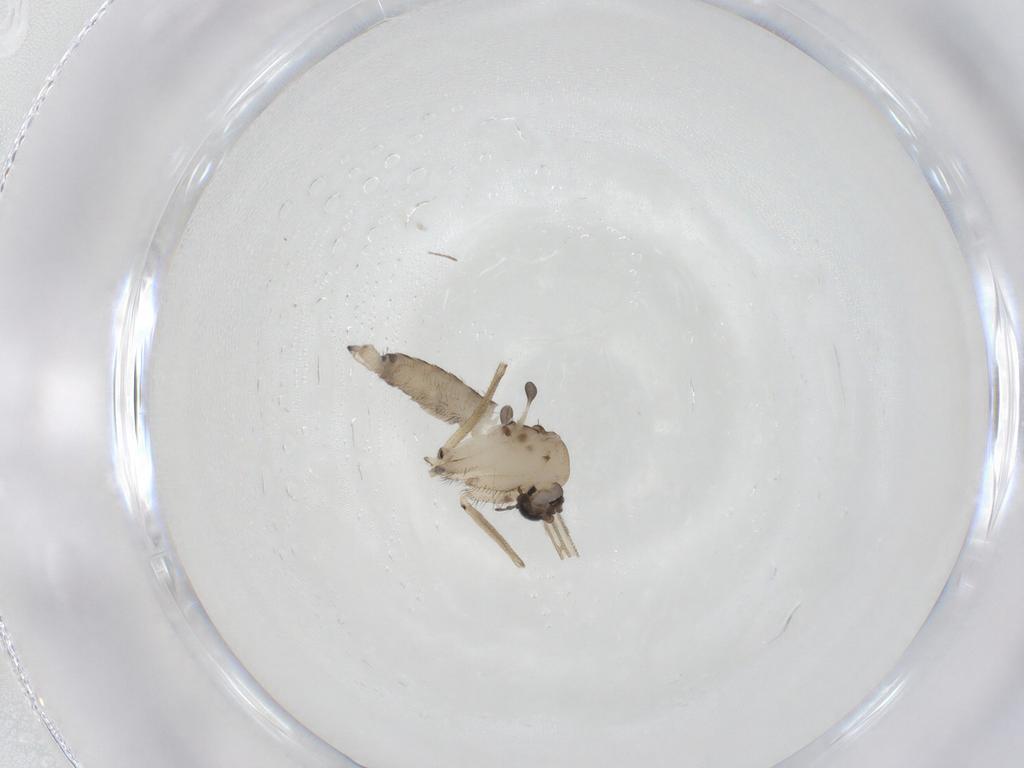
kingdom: Animalia
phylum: Arthropoda
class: Insecta
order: Diptera
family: Sciaridae
